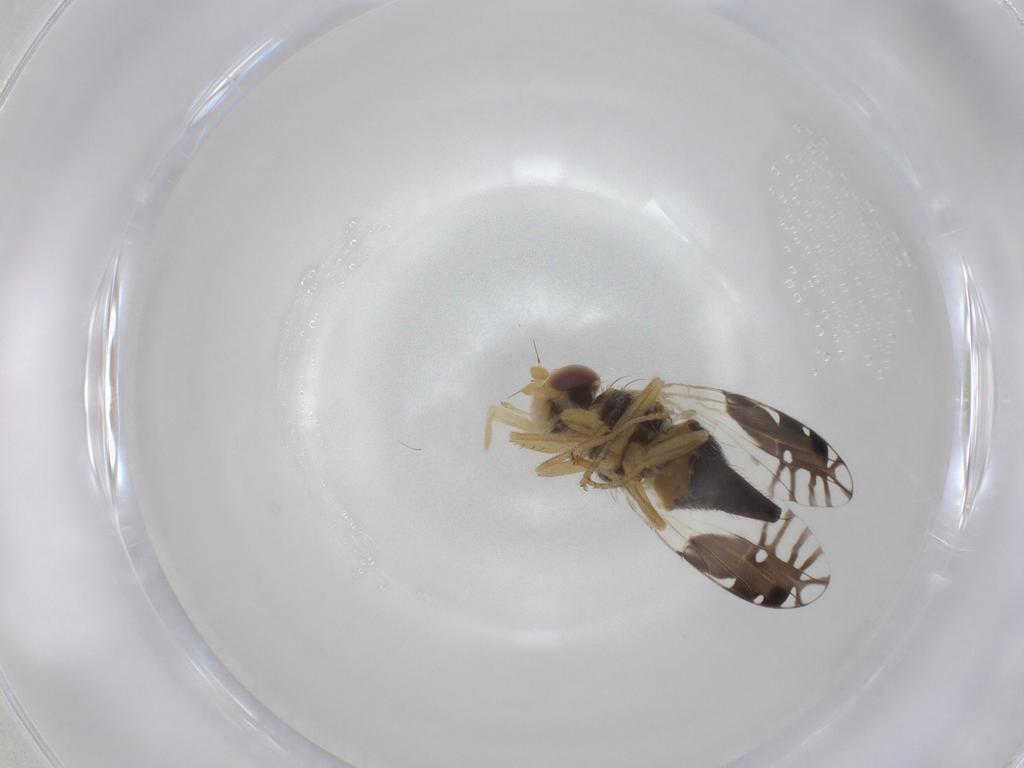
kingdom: Animalia
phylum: Arthropoda
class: Insecta
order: Diptera
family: Tephritidae
